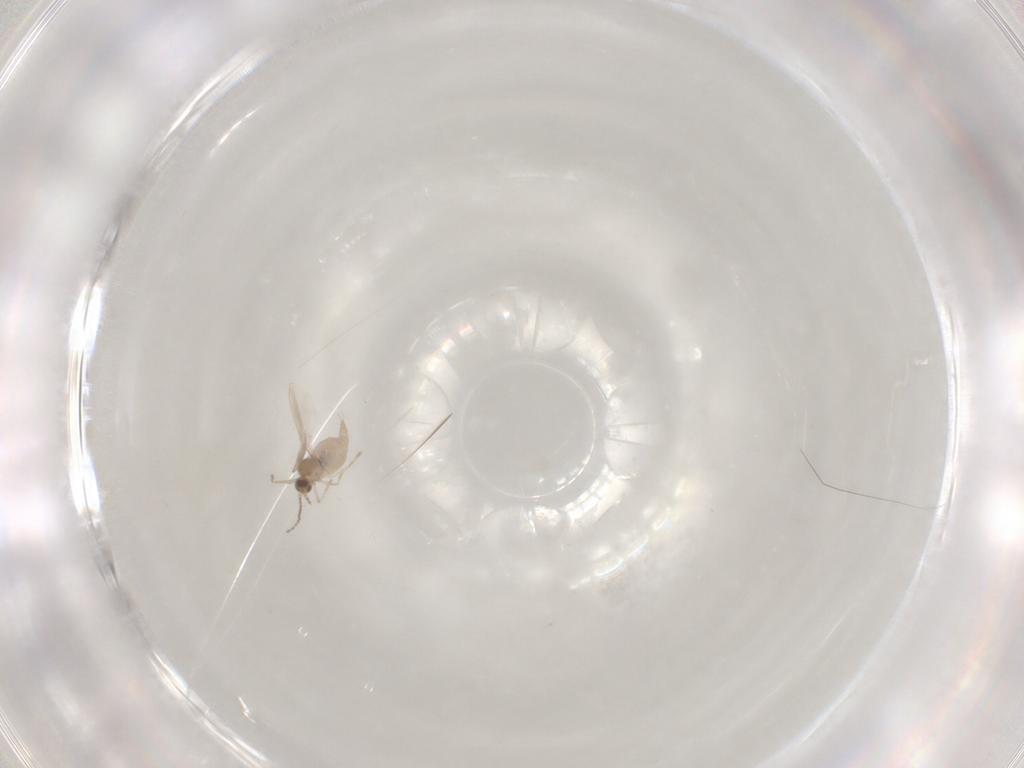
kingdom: Animalia
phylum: Arthropoda
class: Insecta
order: Diptera
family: Cecidomyiidae
